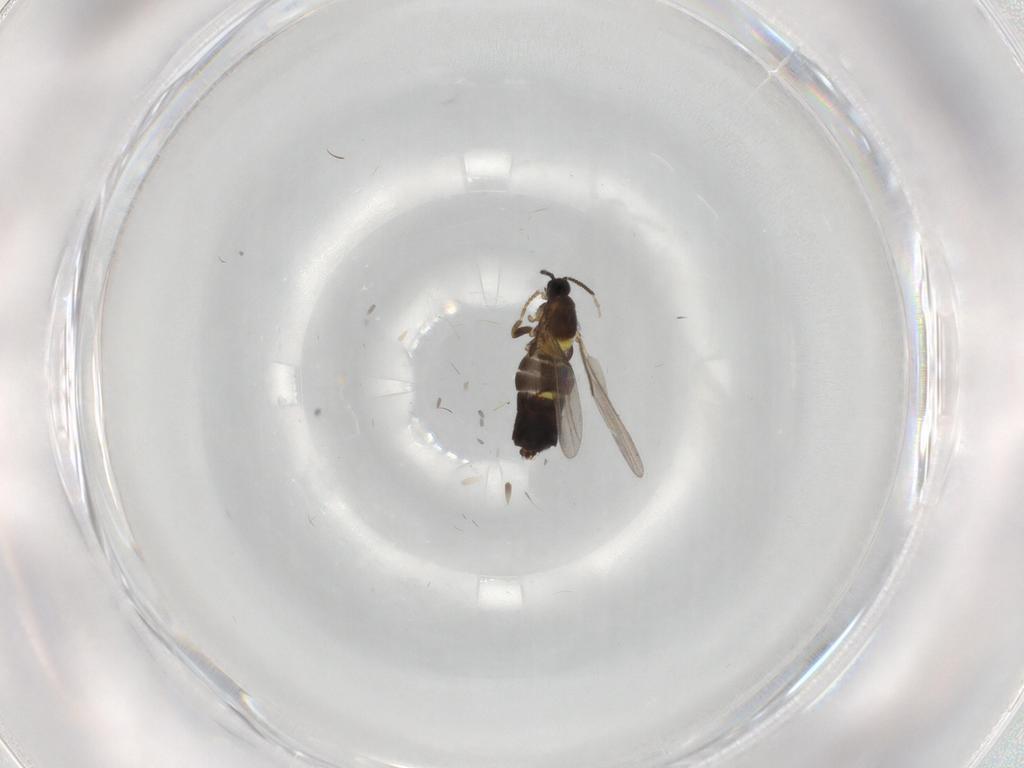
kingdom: Animalia
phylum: Arthropoda
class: Insecta
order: Diptera
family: Scatopsidae
